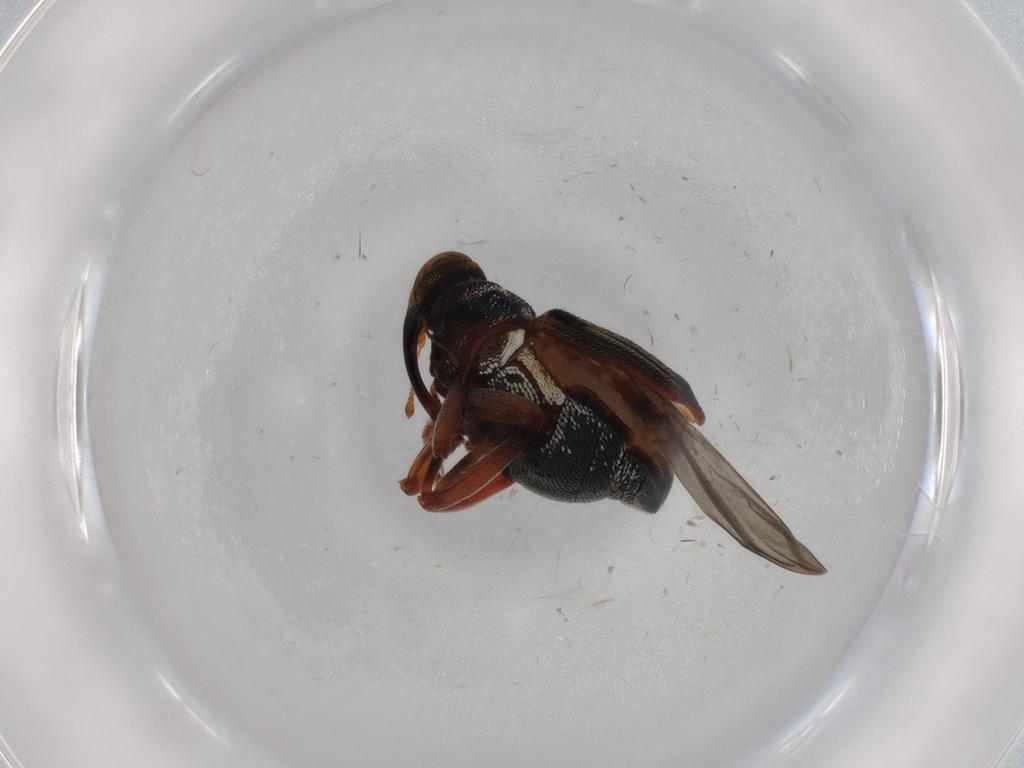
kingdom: Animalia
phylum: Arthropoda
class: Insecta
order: Coleoptera
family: Curculionidae
